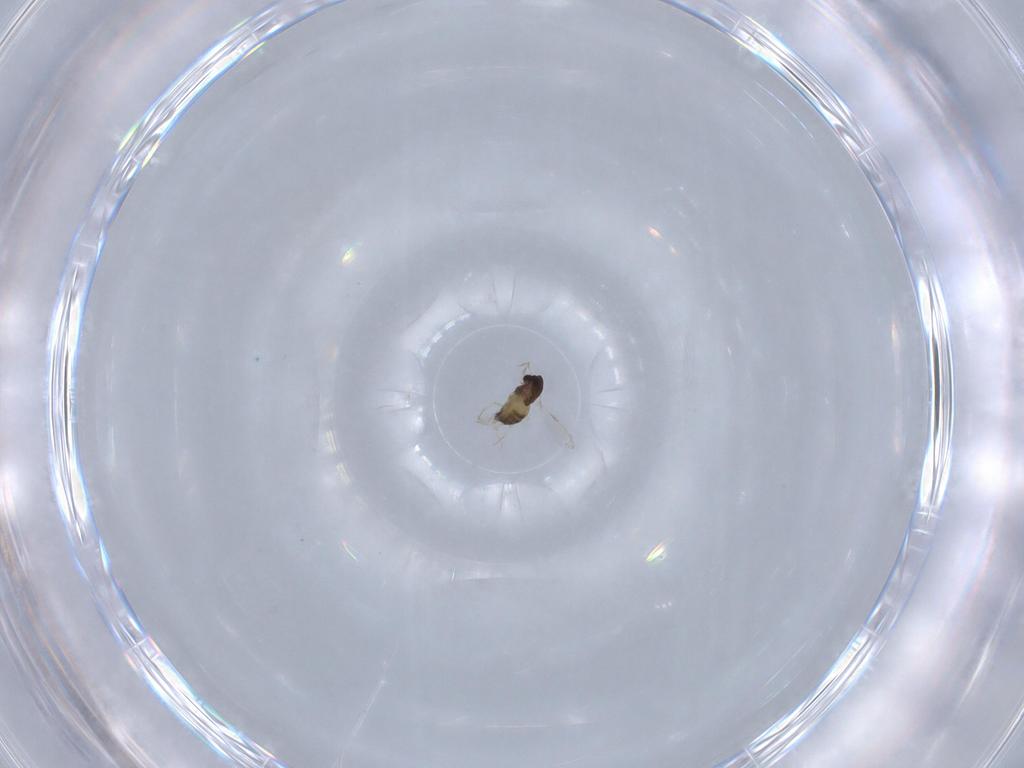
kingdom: Animalia
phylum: Arthropoda
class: Insecta
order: Diptera
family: Chironomidae
